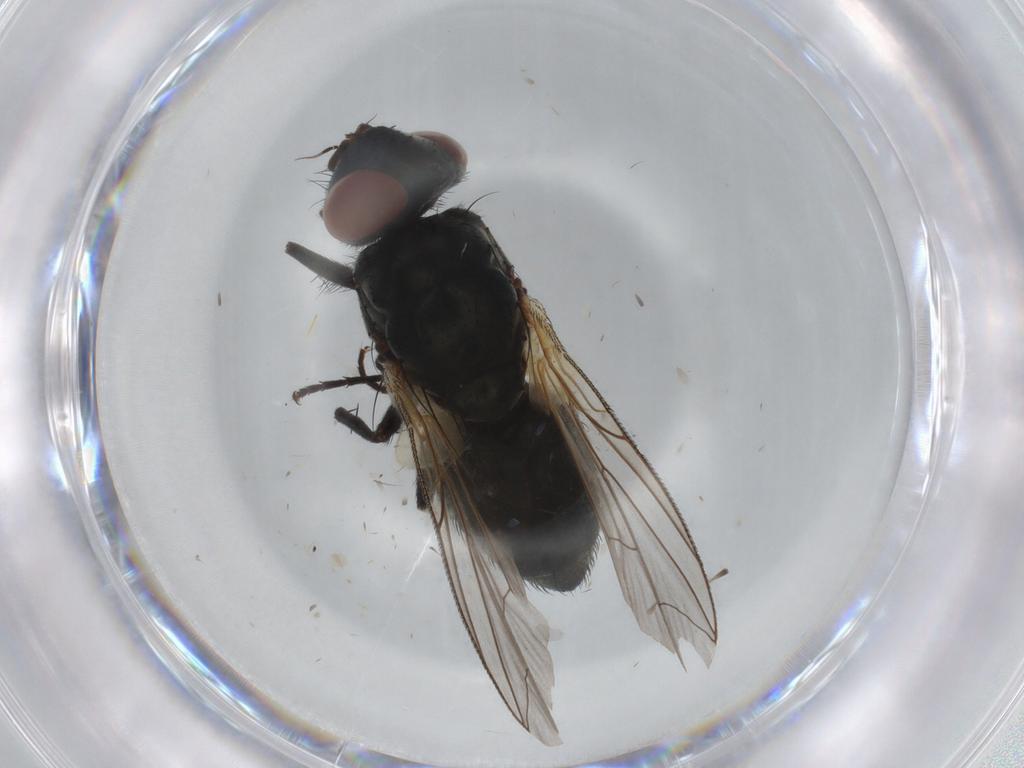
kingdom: Animalia
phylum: Arthropoda
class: Insecta
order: Diptera
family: Sarcophagidae
